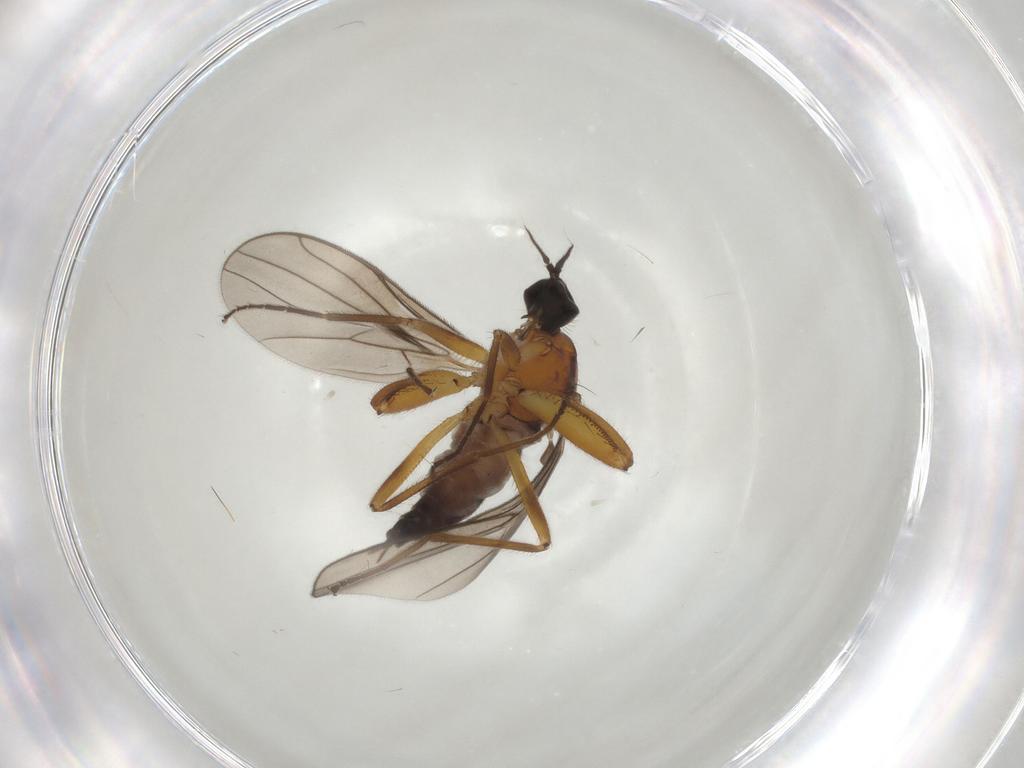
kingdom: Animalia
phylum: Arthropoda
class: Insecta
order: Diptera
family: Hybotidae
